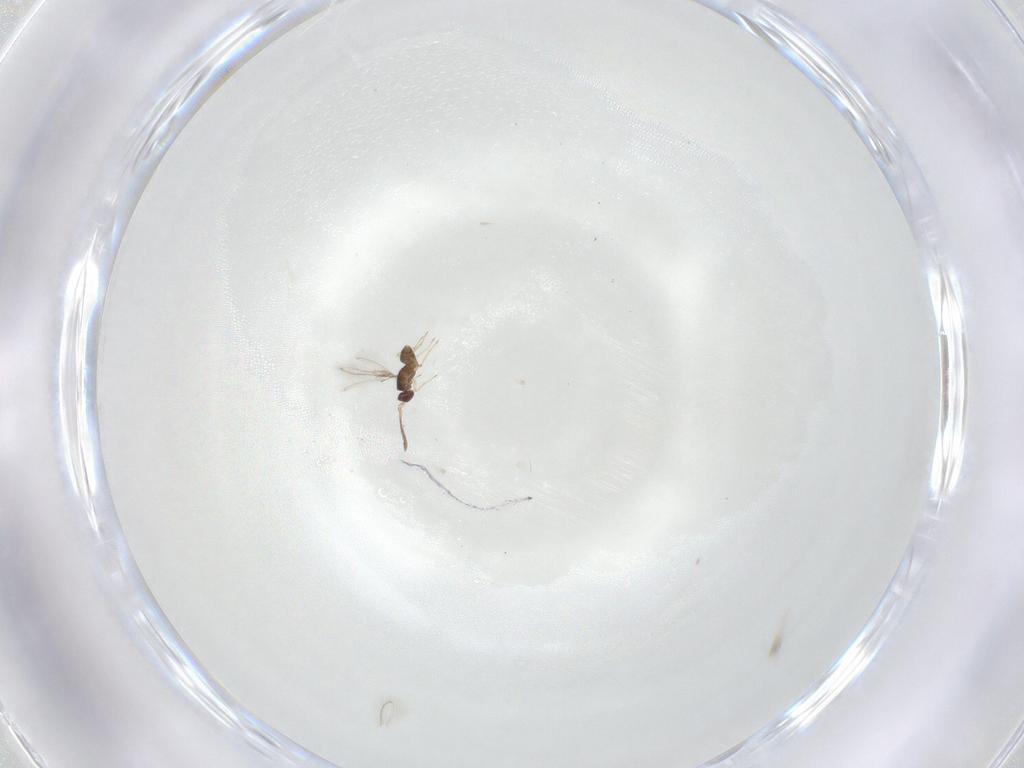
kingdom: Animalia
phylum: Arthropoda
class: Insecta
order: Hymenoptera
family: Mymaridae
